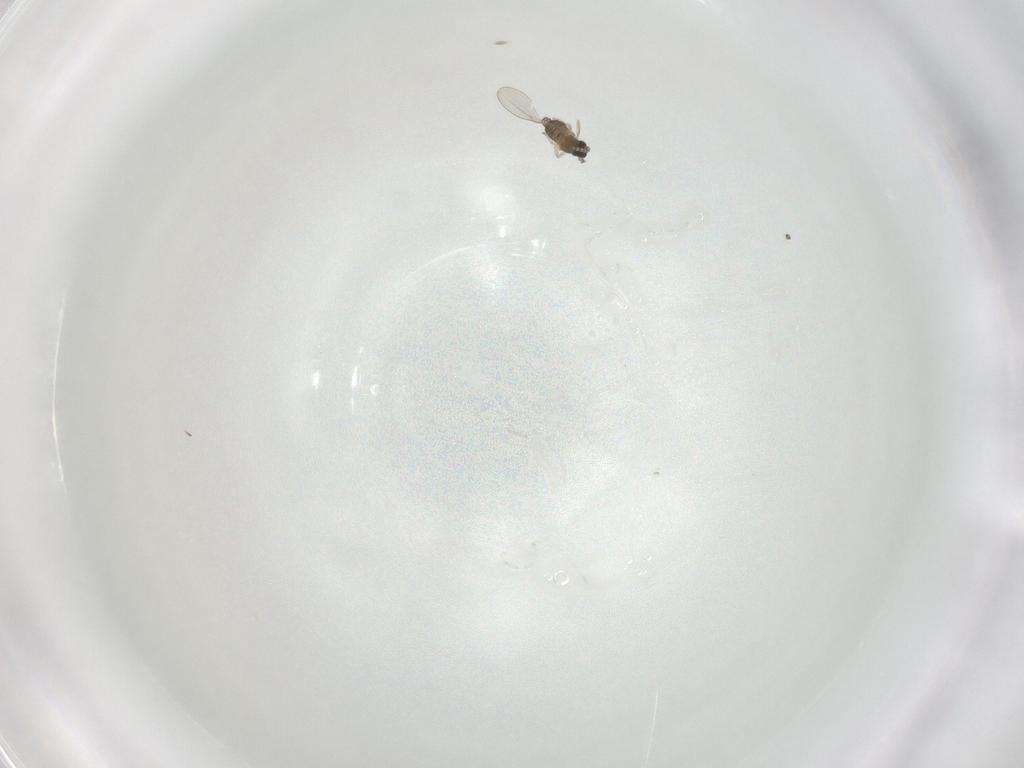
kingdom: Animalia
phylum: Arthropoda
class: Insecta
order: Diptera
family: Cecidomyiidae
